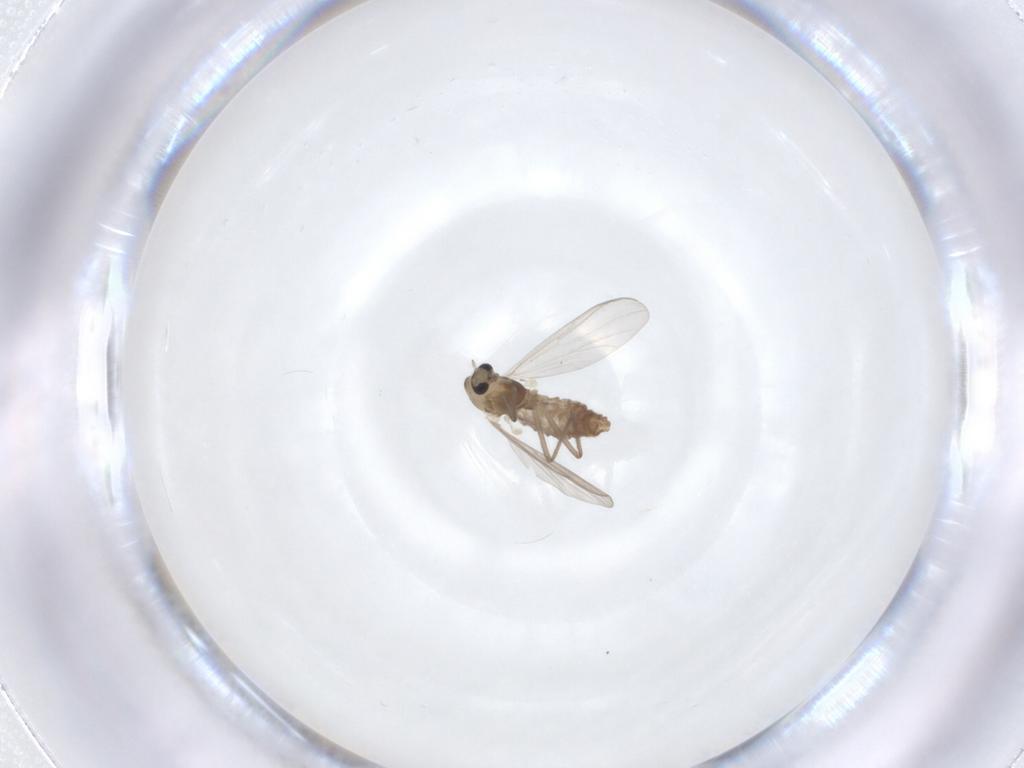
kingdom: Animalia
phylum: Arthropoda
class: Insecta
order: Diptera
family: Chironomidae
